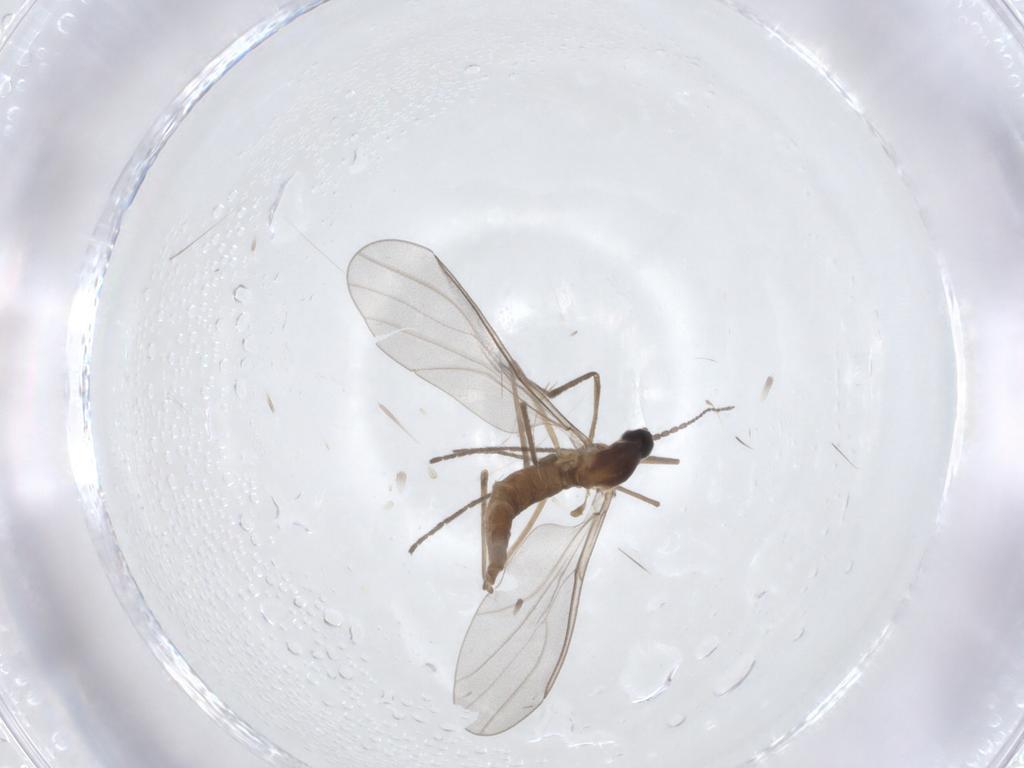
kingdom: Animalia
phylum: Arthropoda
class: Insecta
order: Diptera
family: Cecidomyiidae
